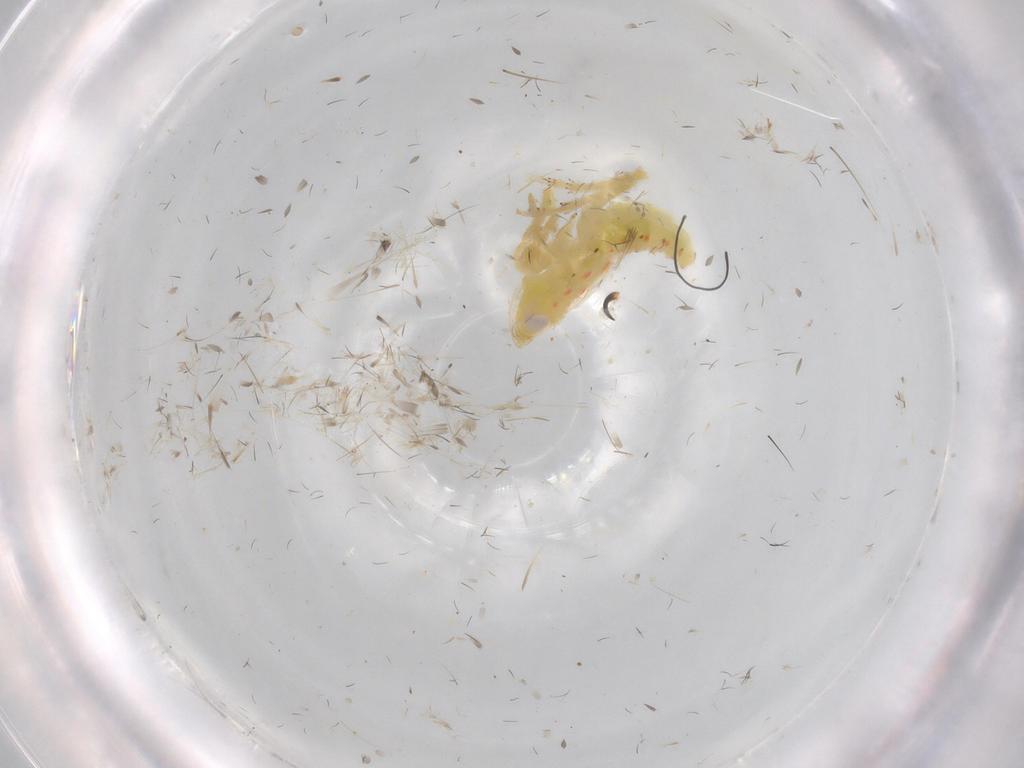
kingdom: Animalia
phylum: Arthropoda
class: Insecta
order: Hemiptera
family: Tropiduchidae
